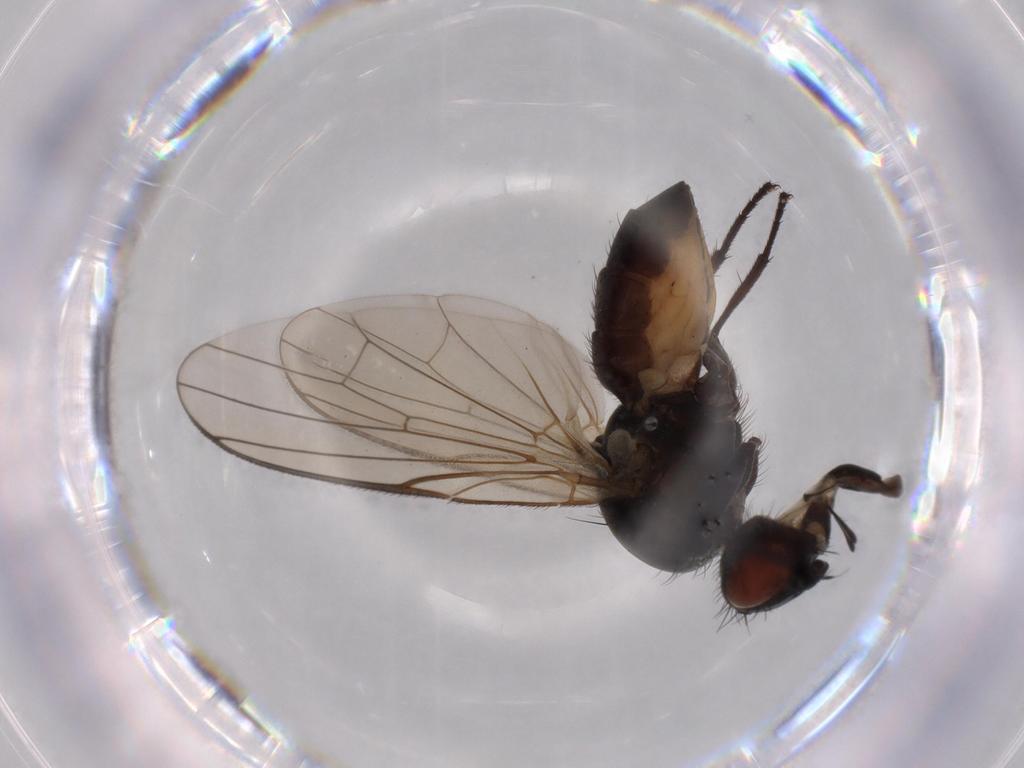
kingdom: Animalia
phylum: Arthropoda
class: Insecta
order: Diptera
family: Anthomyiidae
